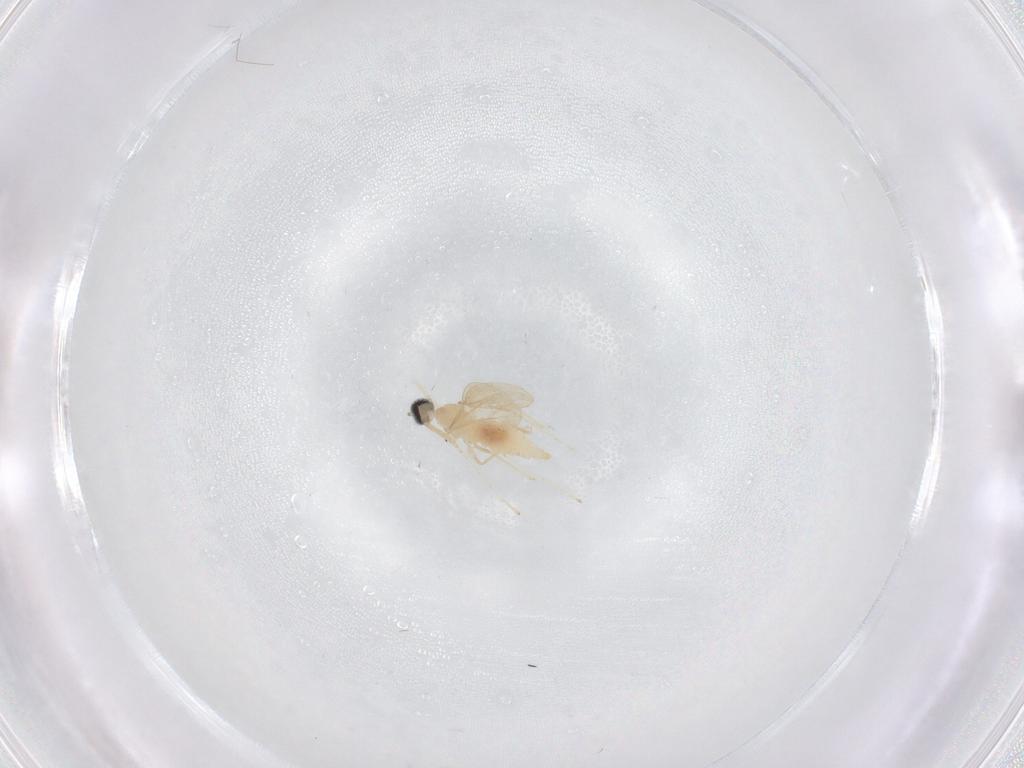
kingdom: Animalia
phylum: Arthropoda
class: Insecta
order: Diptera
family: Cecidomyiidae
